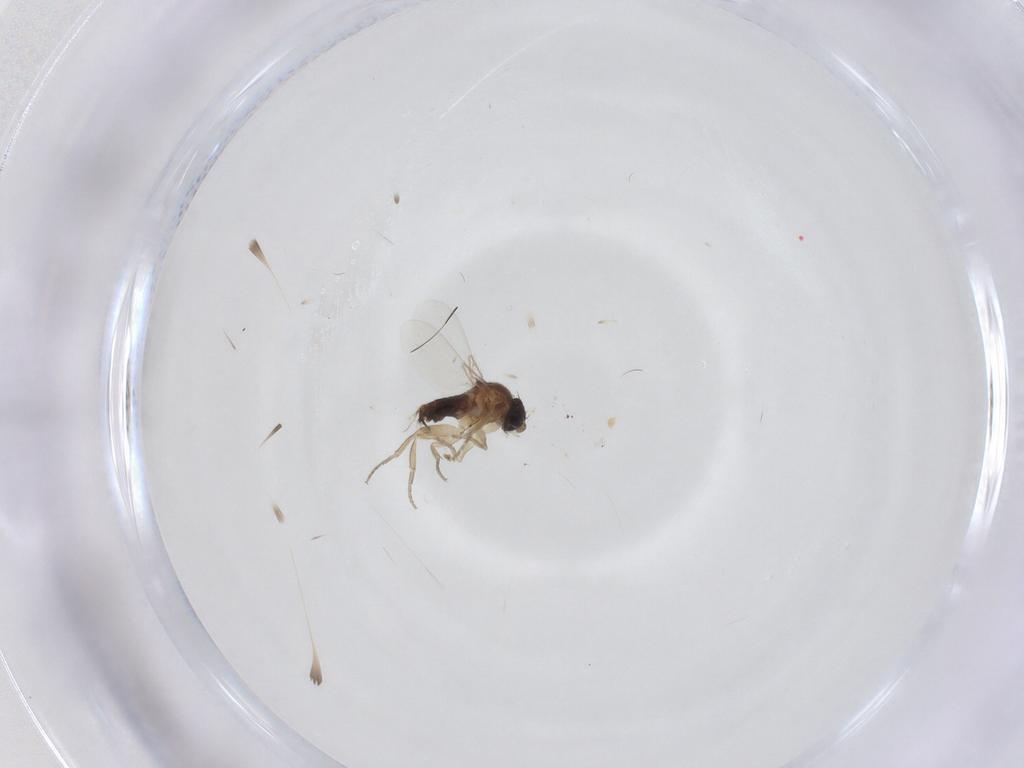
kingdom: Animalia
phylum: Arthropoda
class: Insecta
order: Diptera
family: Phoridae
